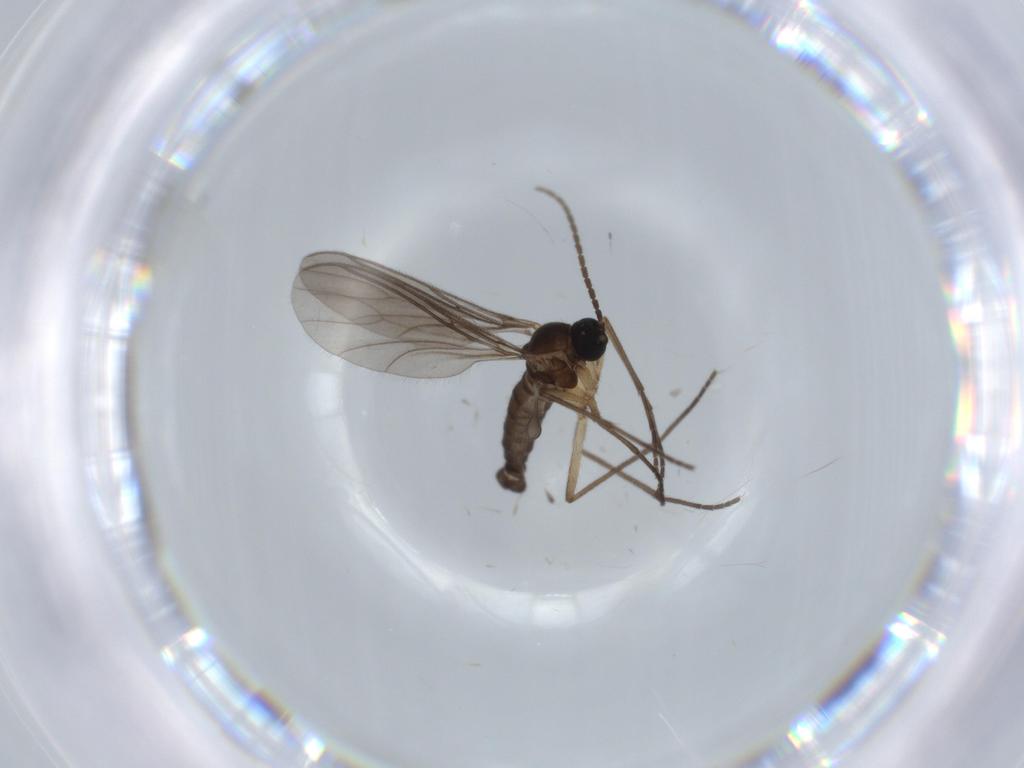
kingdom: Animalia
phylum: Arthropoda
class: Insecta
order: Diptera
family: Sciaridae
